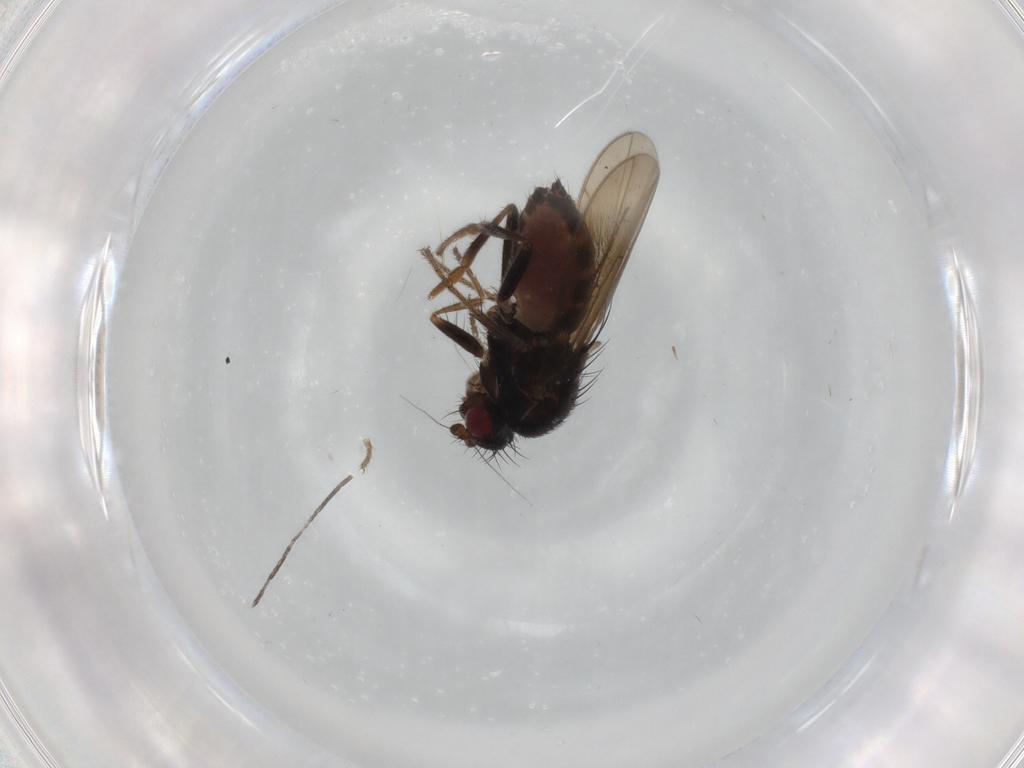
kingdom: Animalia
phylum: Arthropoda
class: Insecta
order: Diptera
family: Sphaeroceridae
